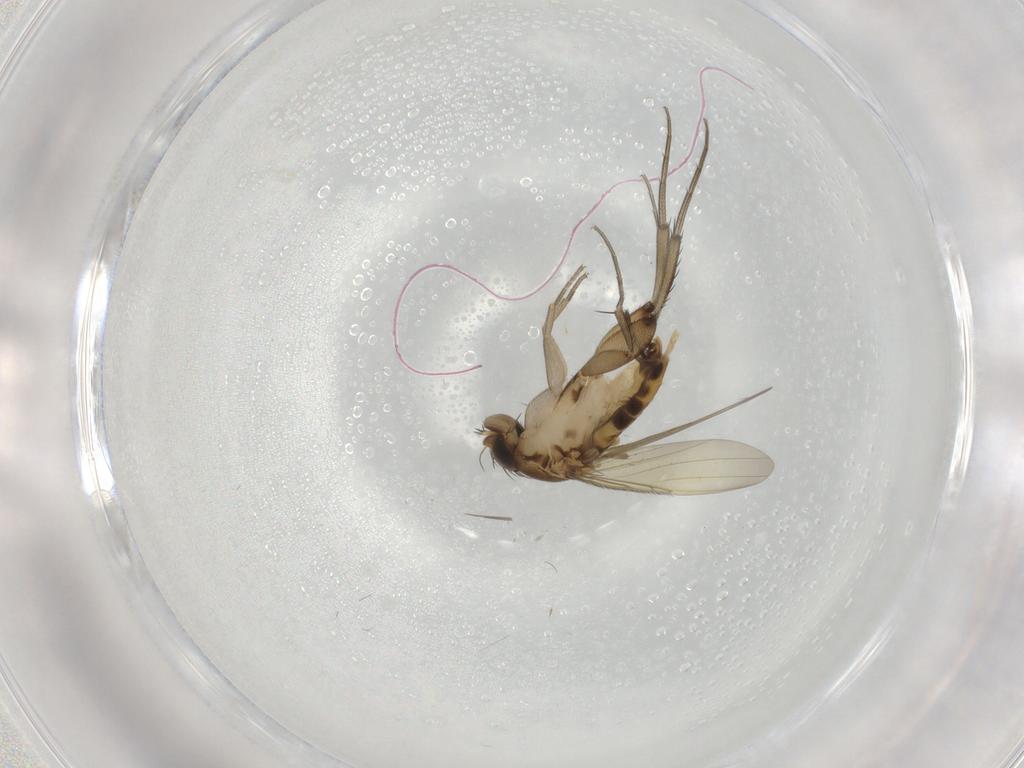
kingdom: Animalia
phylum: Arthropoda
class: Insecta
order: Diptera
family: Phoridae
